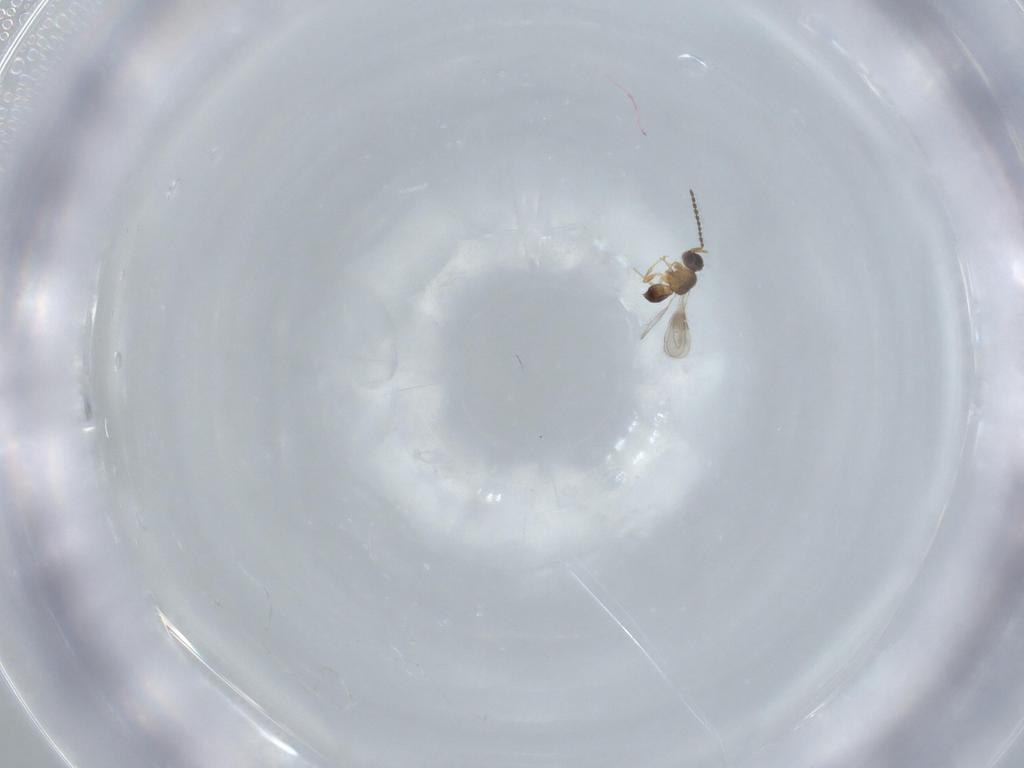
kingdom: Animalia
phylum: Arthropoda
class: Insecta
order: Hymenoptera
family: Ceraphronidae
